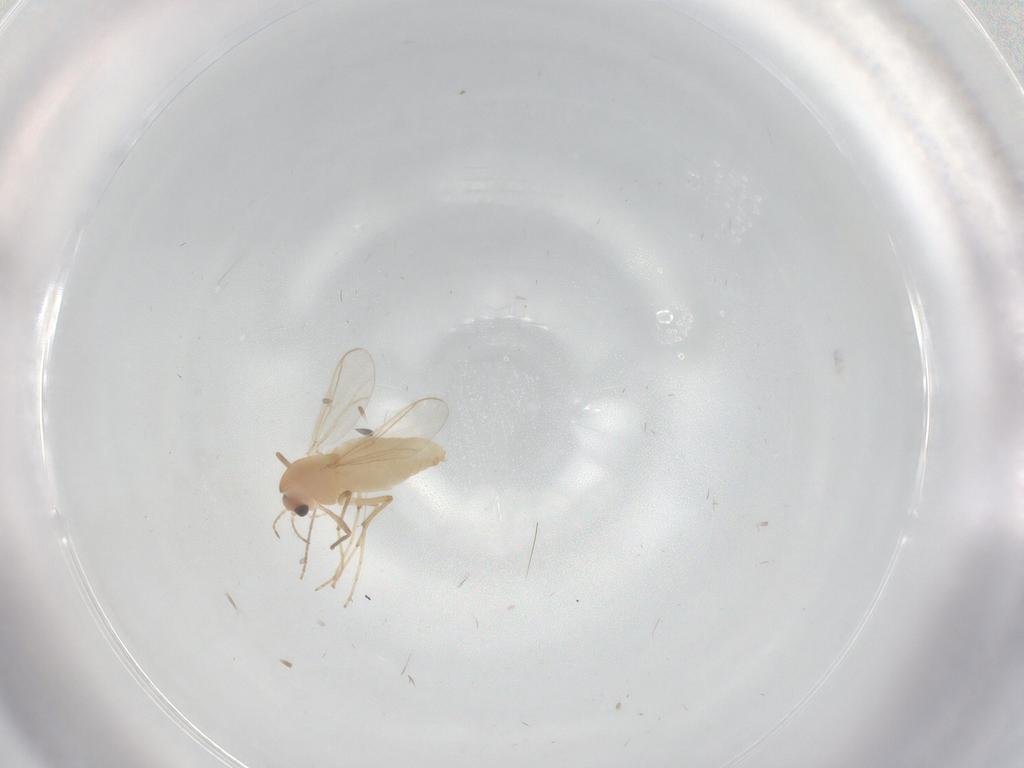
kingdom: Animalia
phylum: Arthropoda
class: Insecta
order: Diptera
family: Chironomidae
